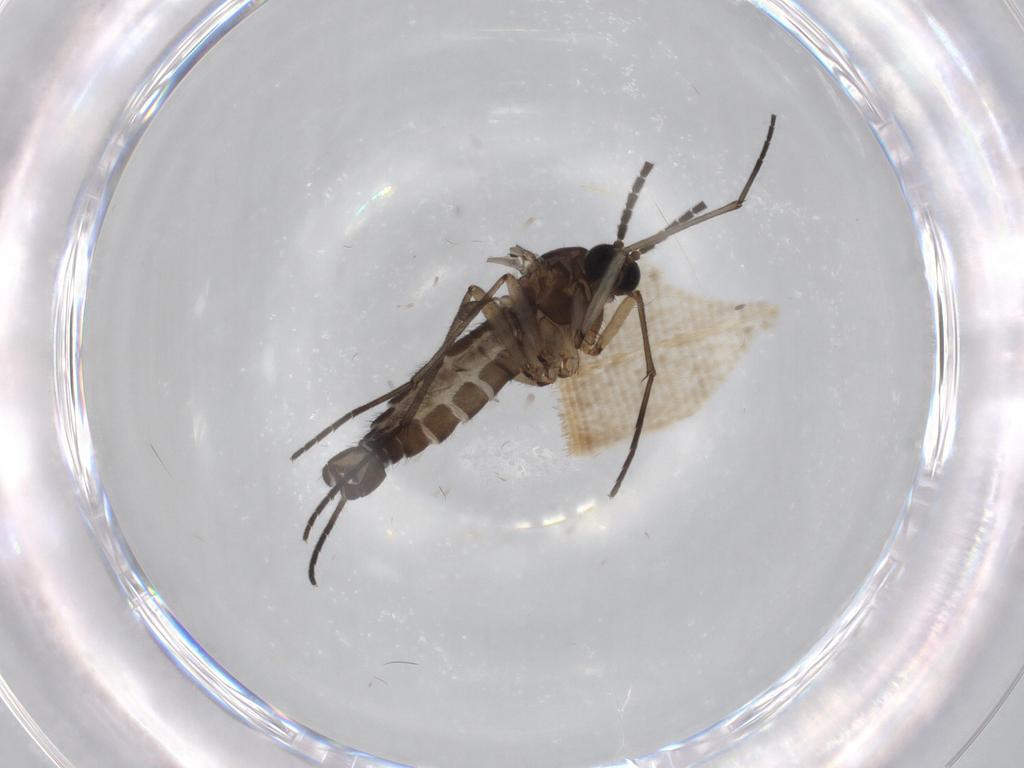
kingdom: Animalia
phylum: Arthropoda
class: Insecta
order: Diptera
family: Sciaridae
